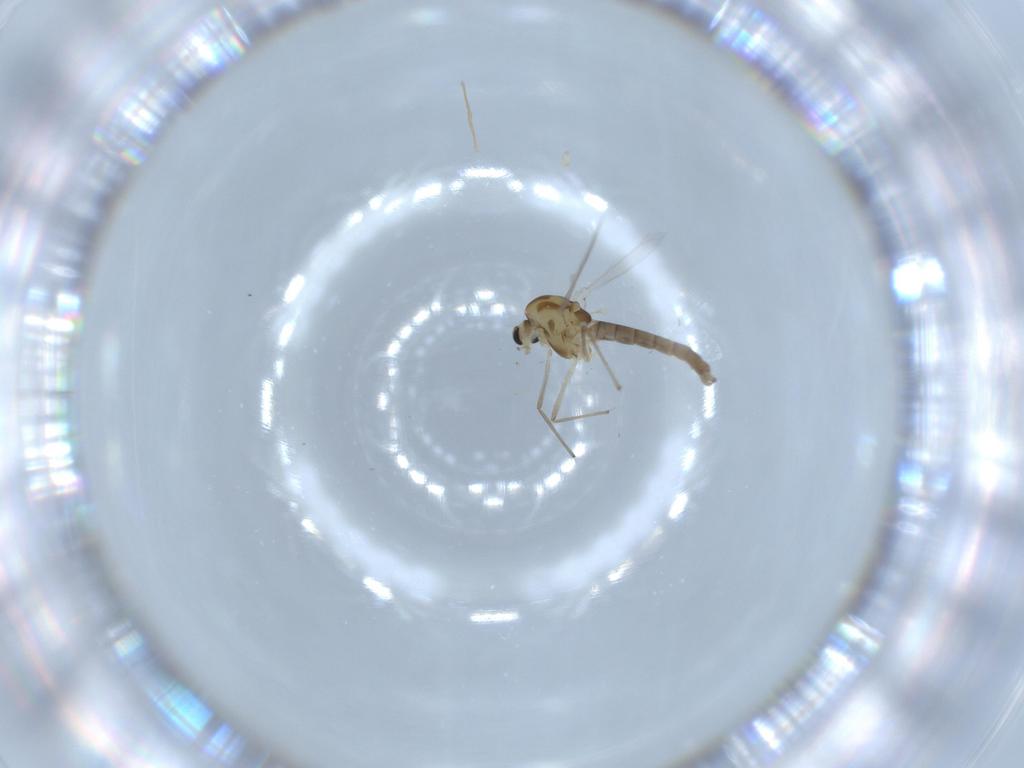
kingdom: Animalia
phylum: Arthropoda
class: Insecta
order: Diptera
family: Chironomidae
